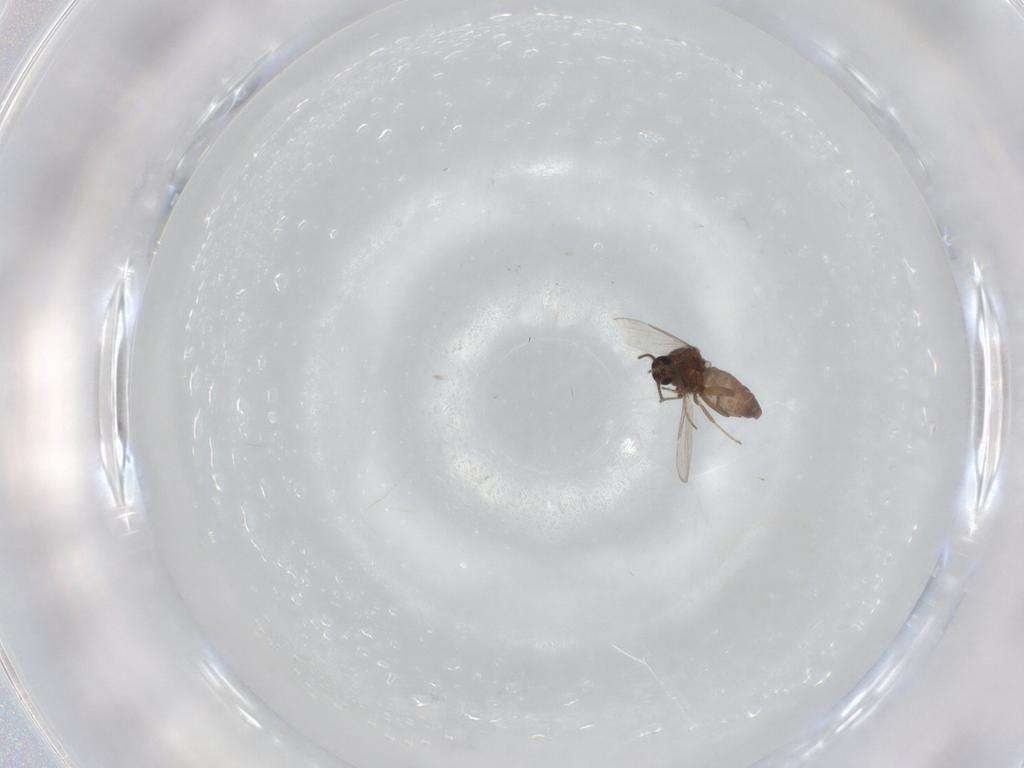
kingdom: Animalia
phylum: Arthropoda
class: Insecta
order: Diptera
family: Ceratopogonidae
